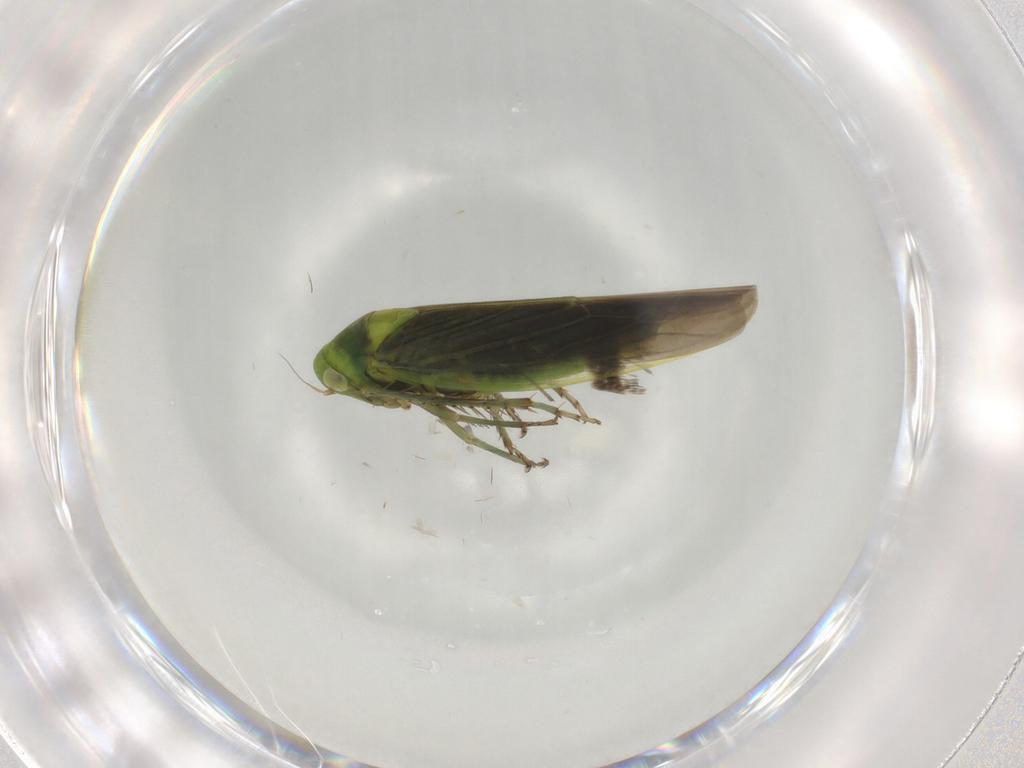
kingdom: Animalia
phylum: Arthropoda
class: Insecta
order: Hemiptera
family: Cicadellidae
